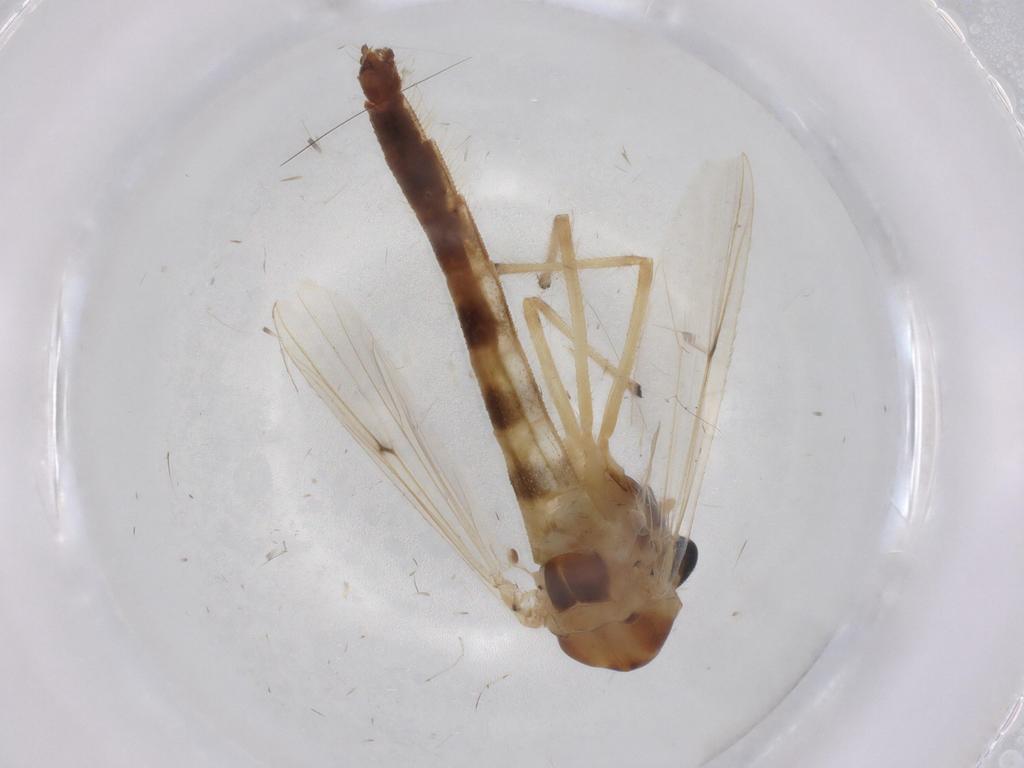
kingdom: Animalia
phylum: Arthropoda
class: Insecta
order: Diptera
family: Chironomidae
